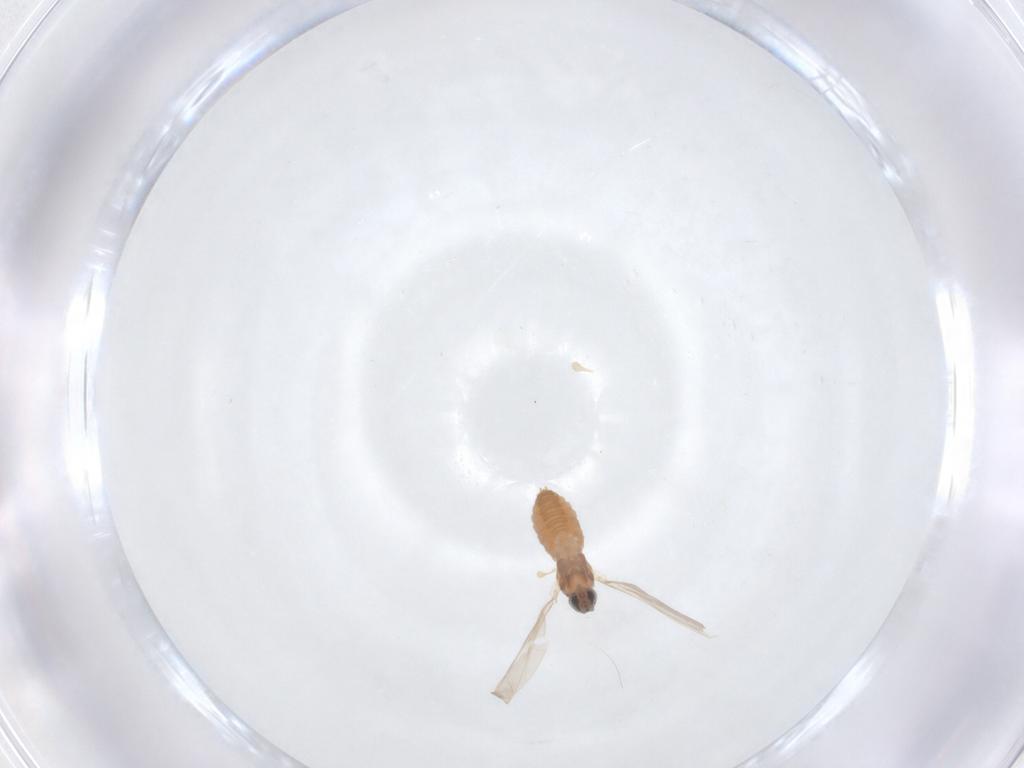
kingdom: Animalia
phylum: Arthropoda
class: Insecta
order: Diptera
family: Cecidomyiidae
